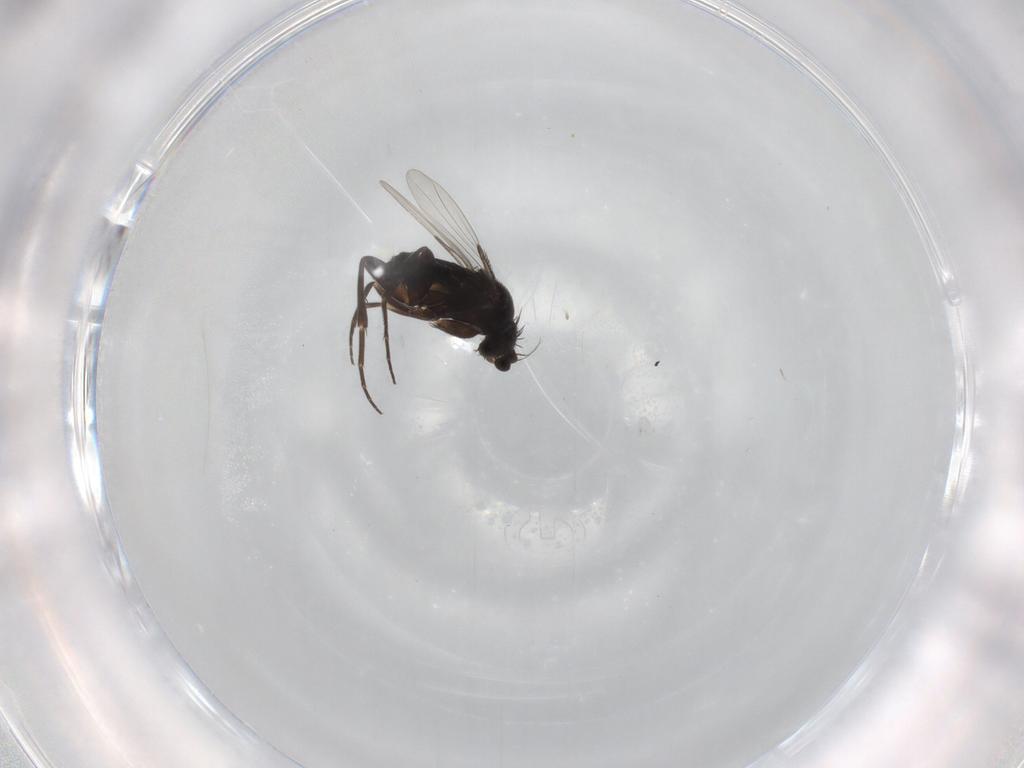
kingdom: Animalia
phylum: Arthropoda
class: Insecta
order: Diptera
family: Phoridae
